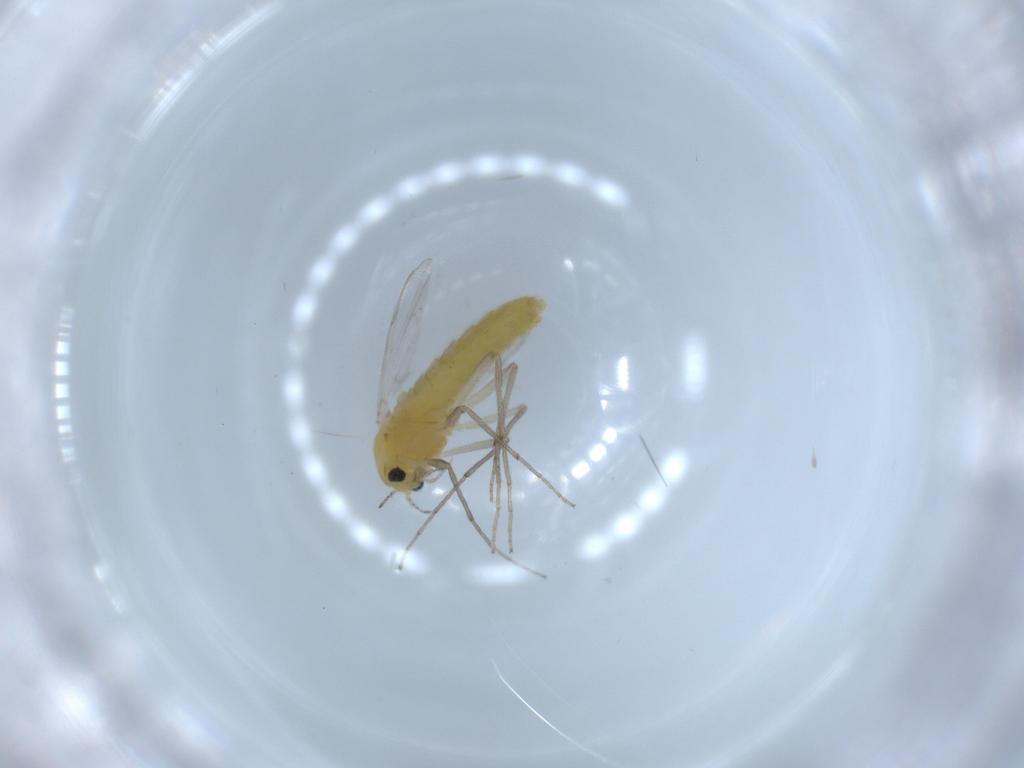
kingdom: Animalia
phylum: Arthropoda
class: Insecta
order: Diptera
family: Chironomidae
